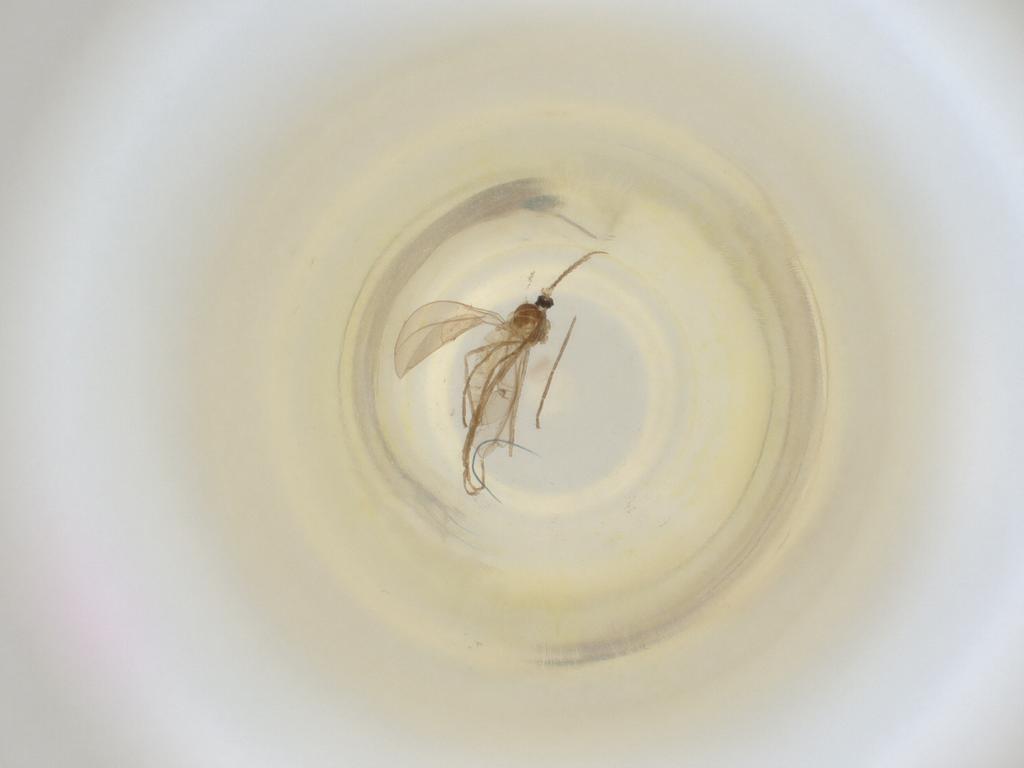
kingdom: Animalia
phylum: Arthropoda
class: Insecta
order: Diptera
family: Cecidomyiidae
